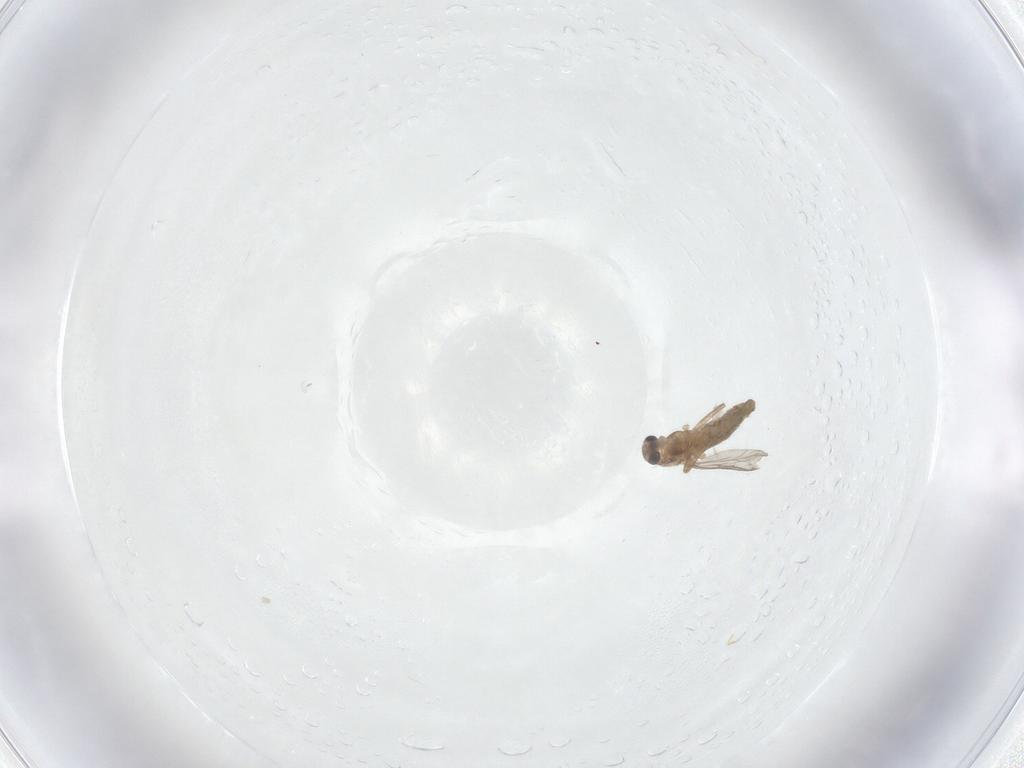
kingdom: Animalia
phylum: Arthropoda
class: Insecta
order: Diptera
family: Chironomidae
